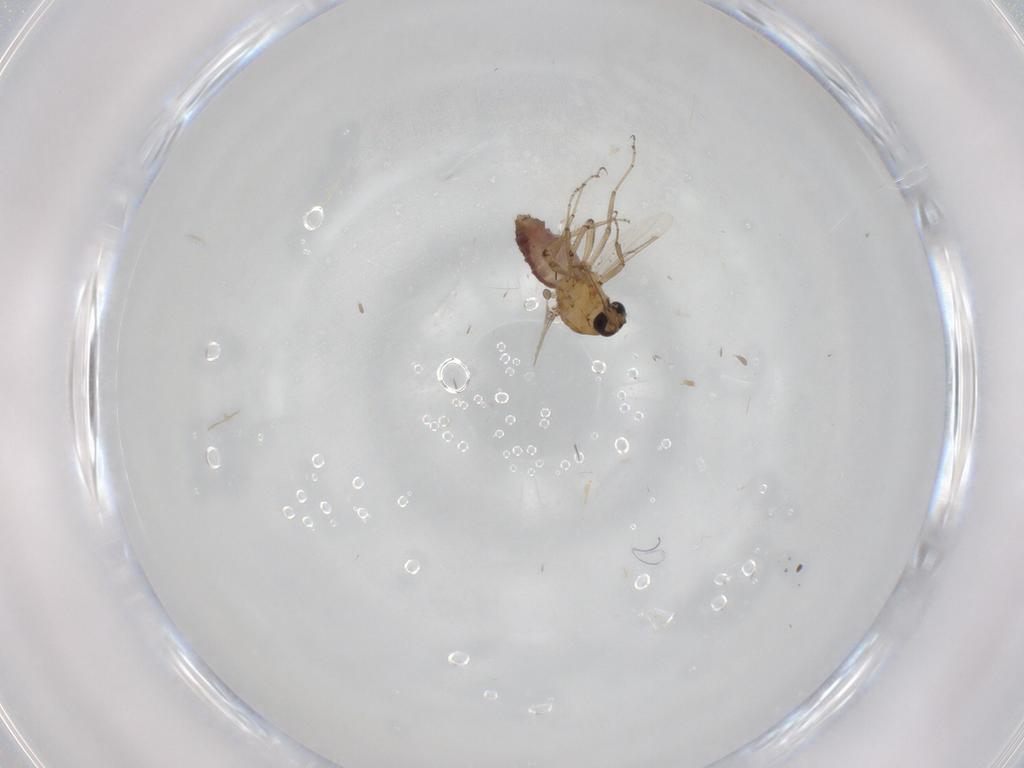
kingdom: Animalia
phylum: Arthropoda
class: Insecta
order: Diptera
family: Ceratopogonidae
